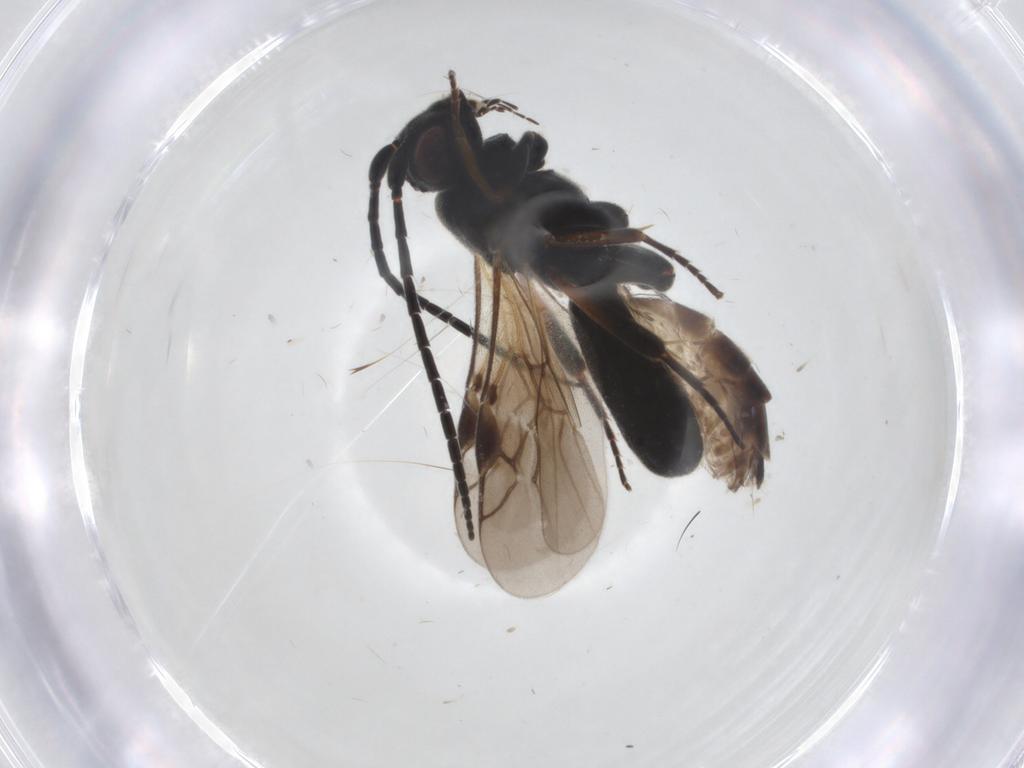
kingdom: Animalia
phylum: Arthropoda
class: Insecta
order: Hymenoptera
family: Braconidae
